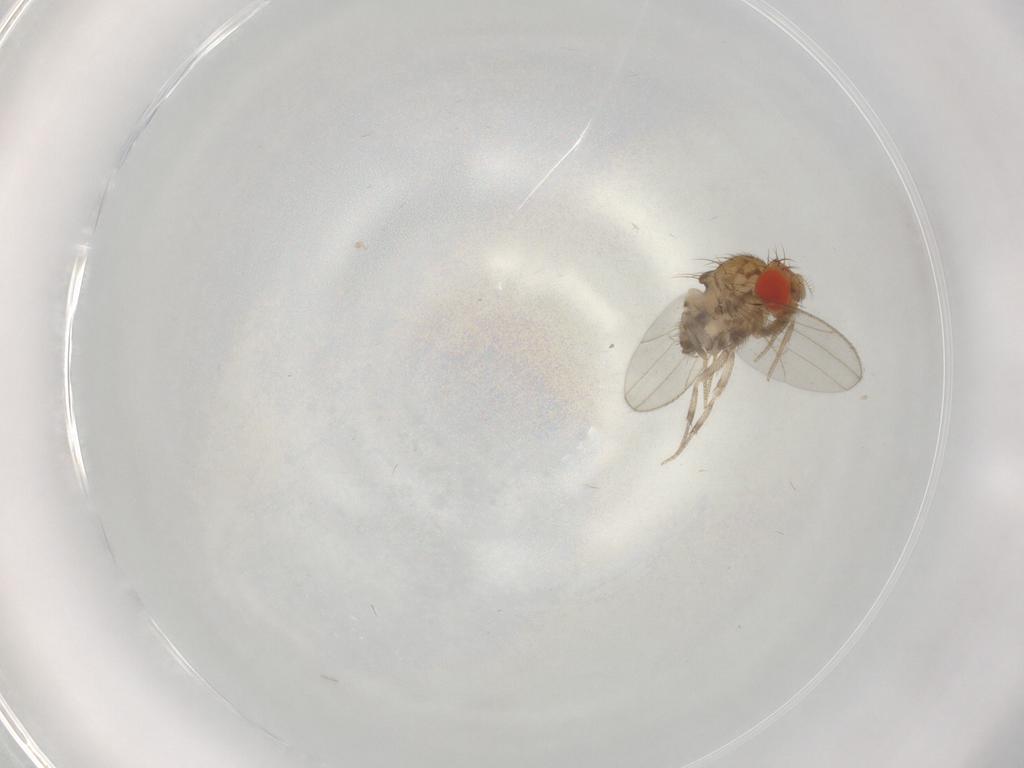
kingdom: Animalia
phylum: Arthropoda
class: Insecta
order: Diptera
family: Drosophilidae
